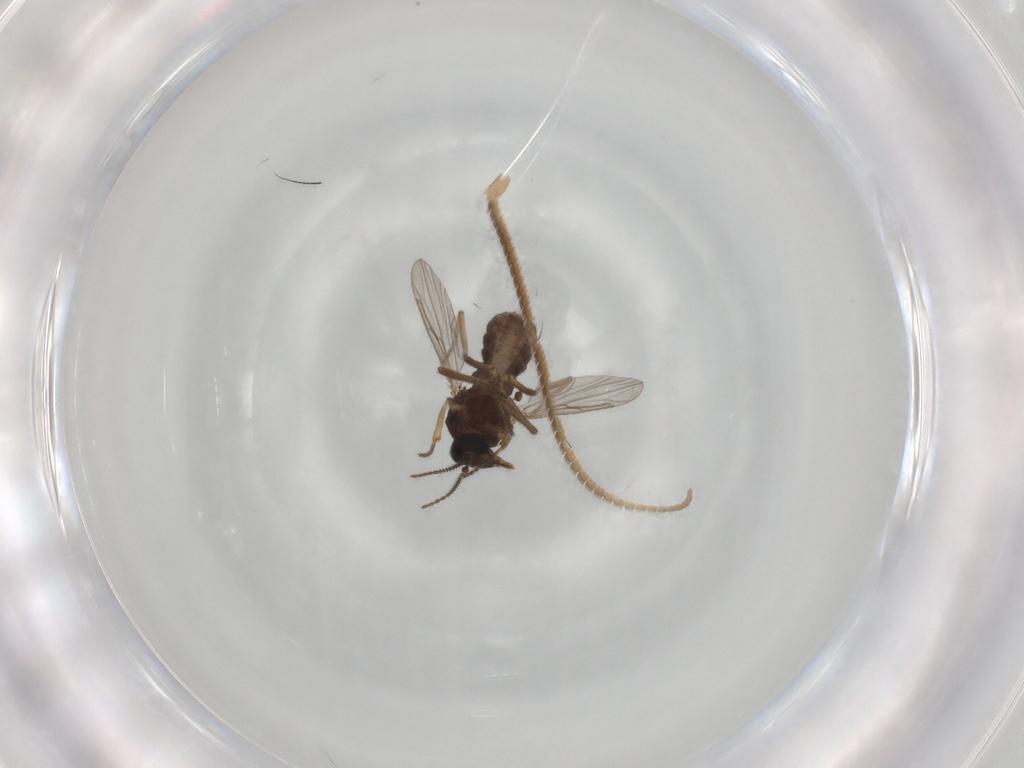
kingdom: Animalia
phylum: Arthropoda
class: Insecta
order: Diptera
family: Ceratopogonidae
